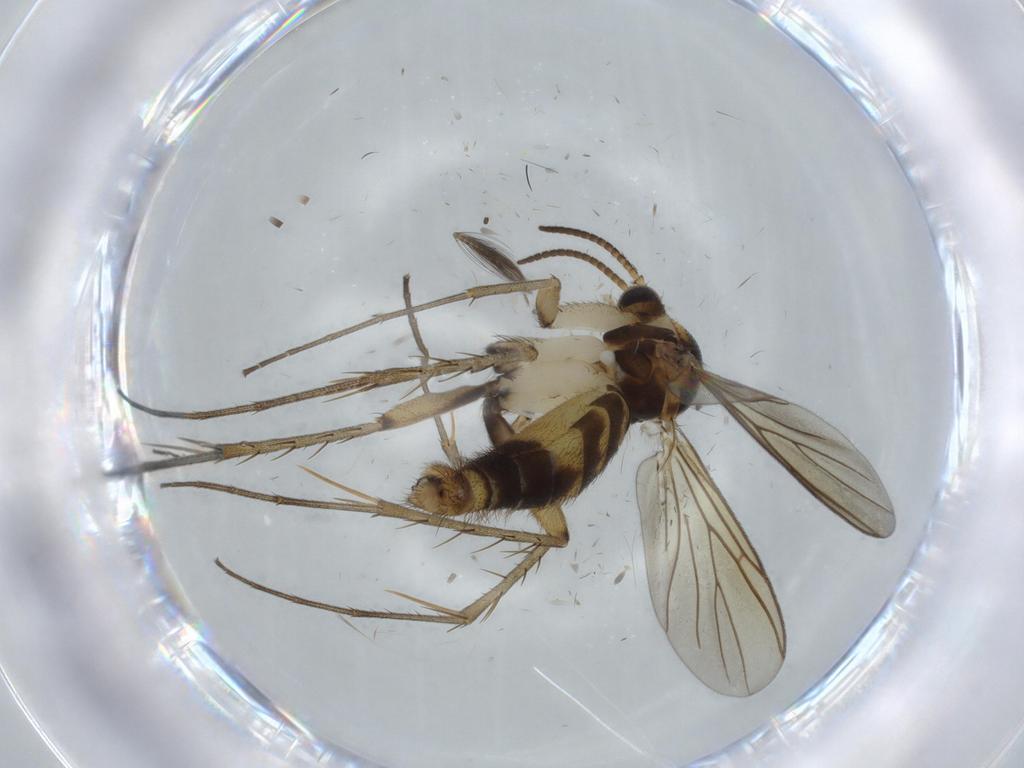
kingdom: Animalia
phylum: Arthropoda
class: Insecta
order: Diptera
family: Mycetophilidae
